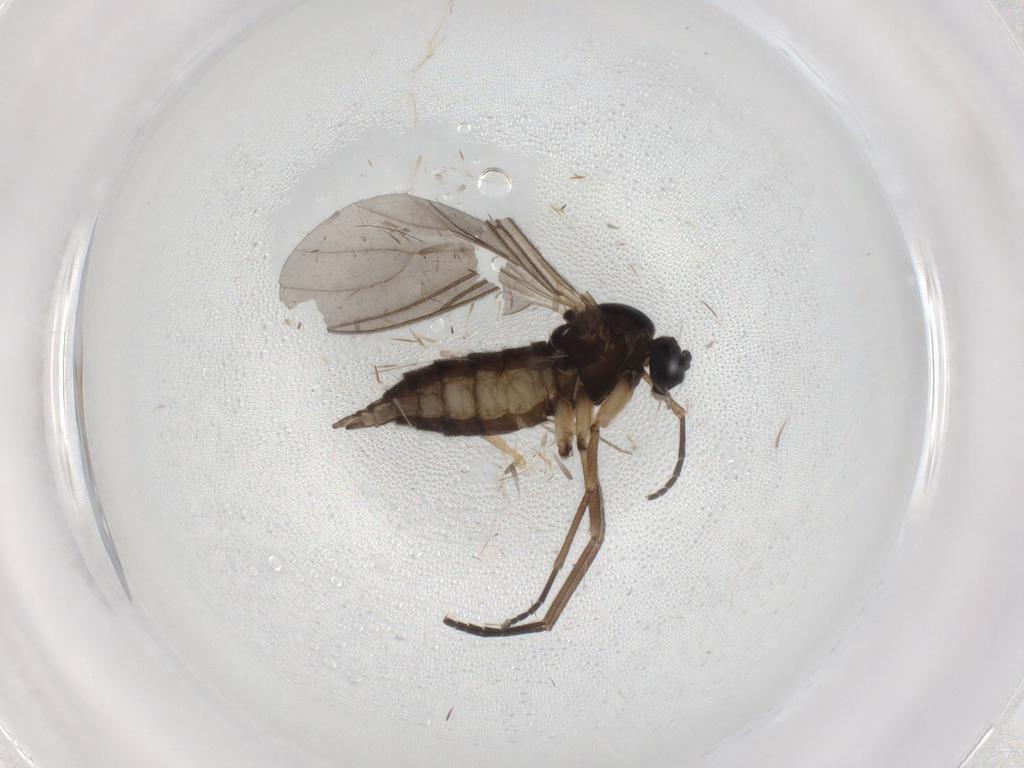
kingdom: Animalia
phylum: Arthropoda
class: Insecta
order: Diptera
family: Sciaridae
